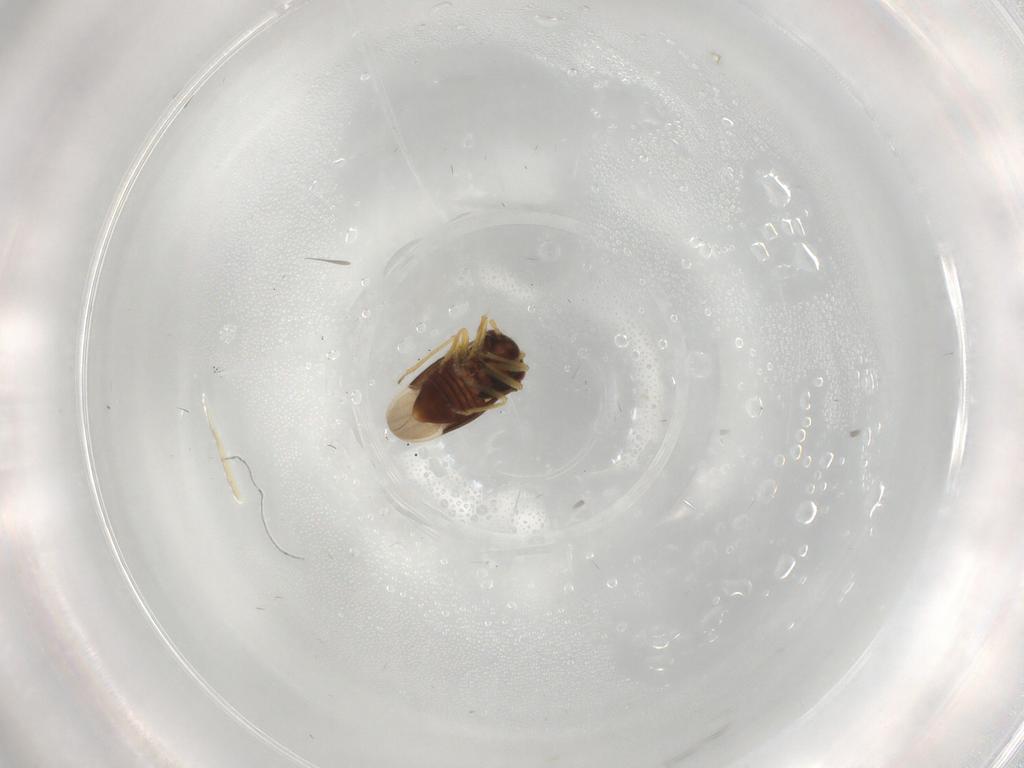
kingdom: Animalia
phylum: Arthropoda
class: Insecta
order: Hemiptera
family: Schizopteridae
